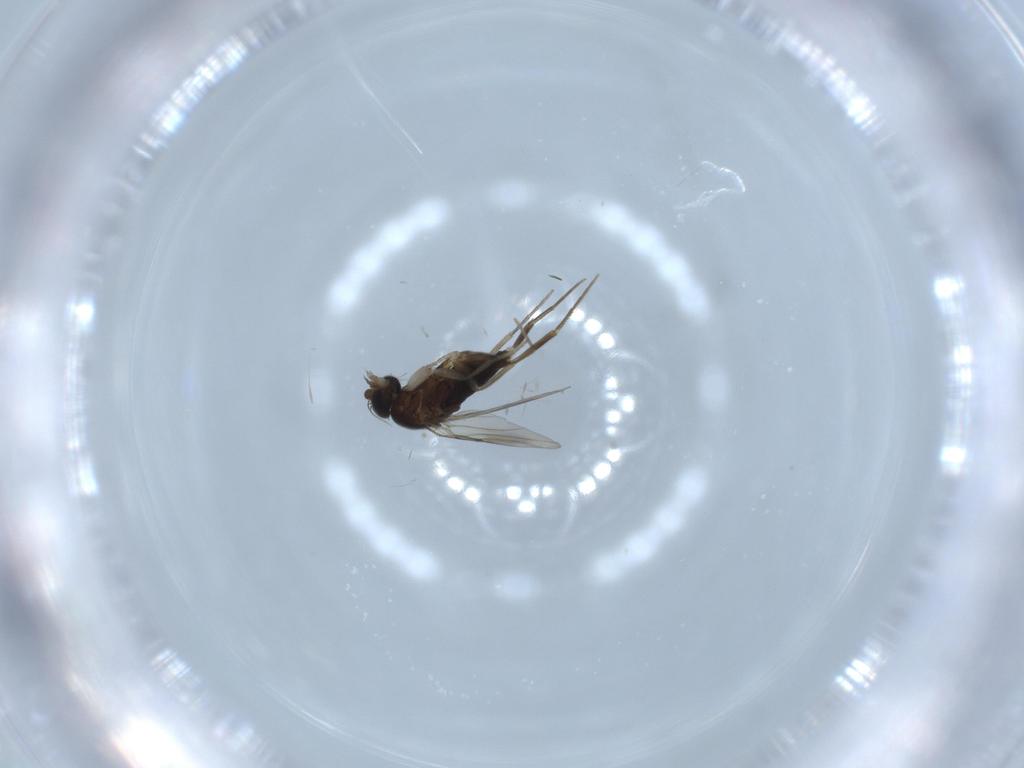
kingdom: Animalia
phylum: Arthropoda
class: Insecta
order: Diptera
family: Phoridae
